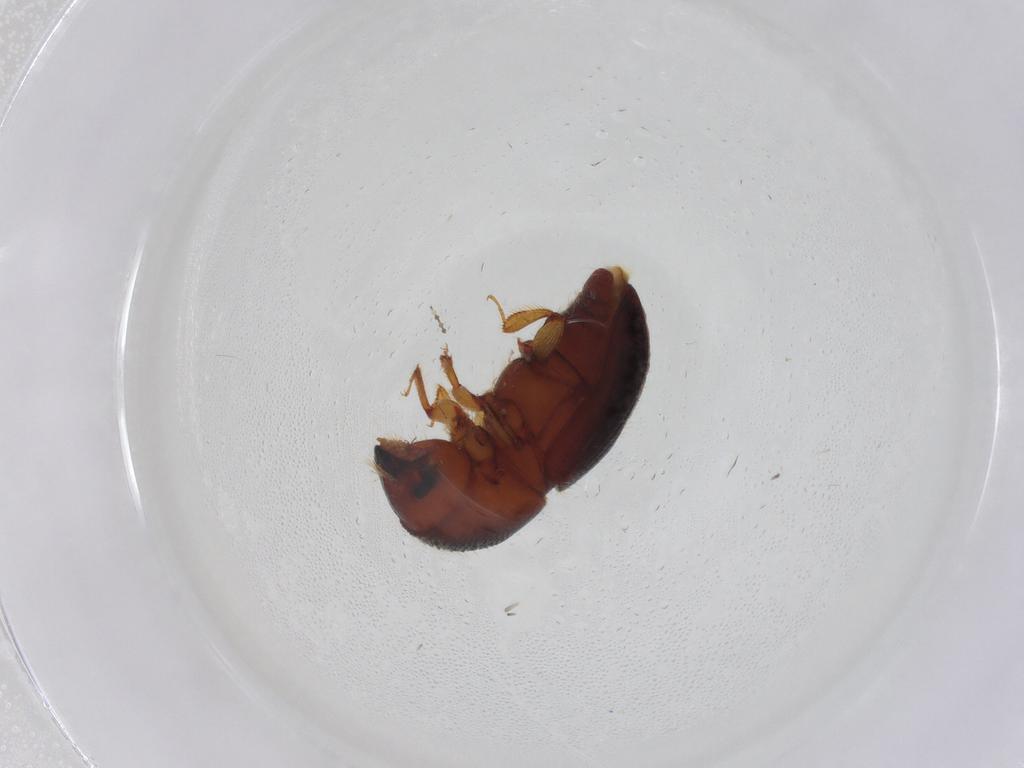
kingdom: Animalia
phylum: Arthropoda
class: Insecta
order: Coleoptera
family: Curculionidae
